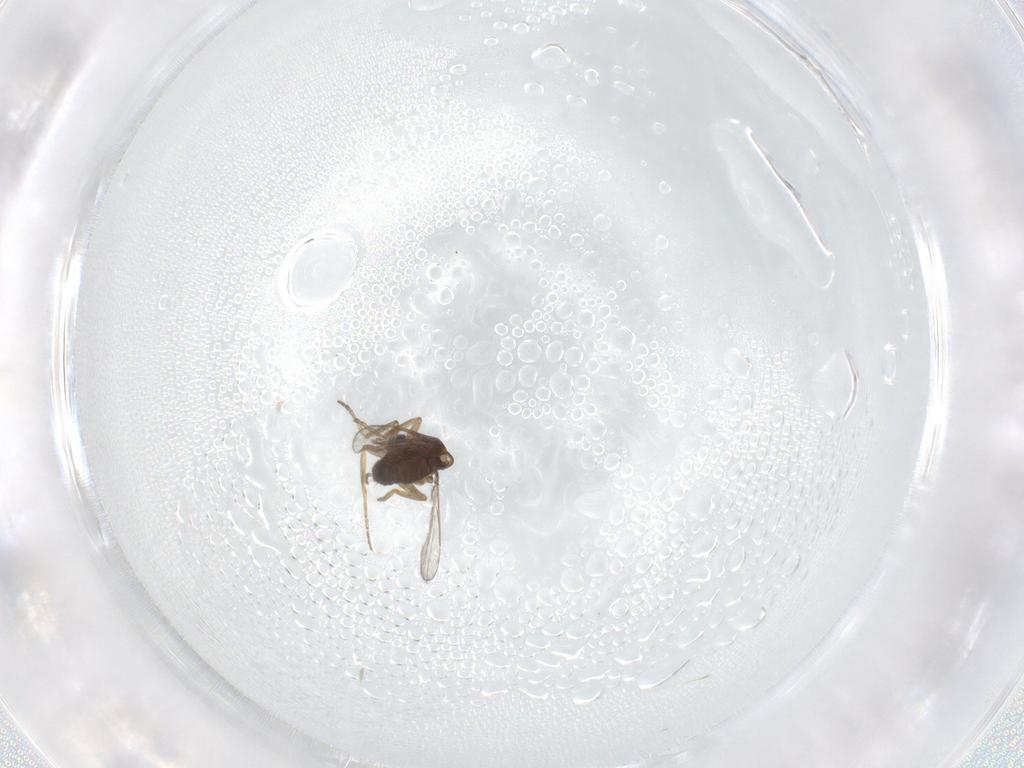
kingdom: Animalia
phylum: Arthropoda
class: Insecta
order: Diptera
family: Ceratopogonidae
